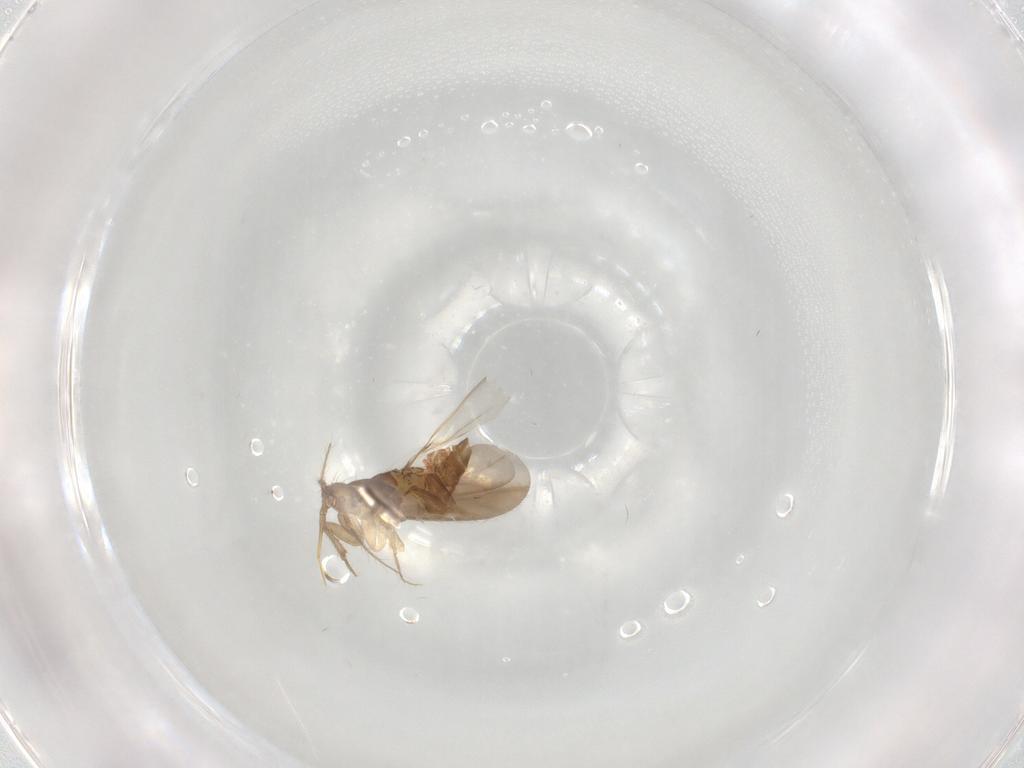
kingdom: Animalia
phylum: Arthropoda
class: Insecta
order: Hemiptera
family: Ceratocombidae
